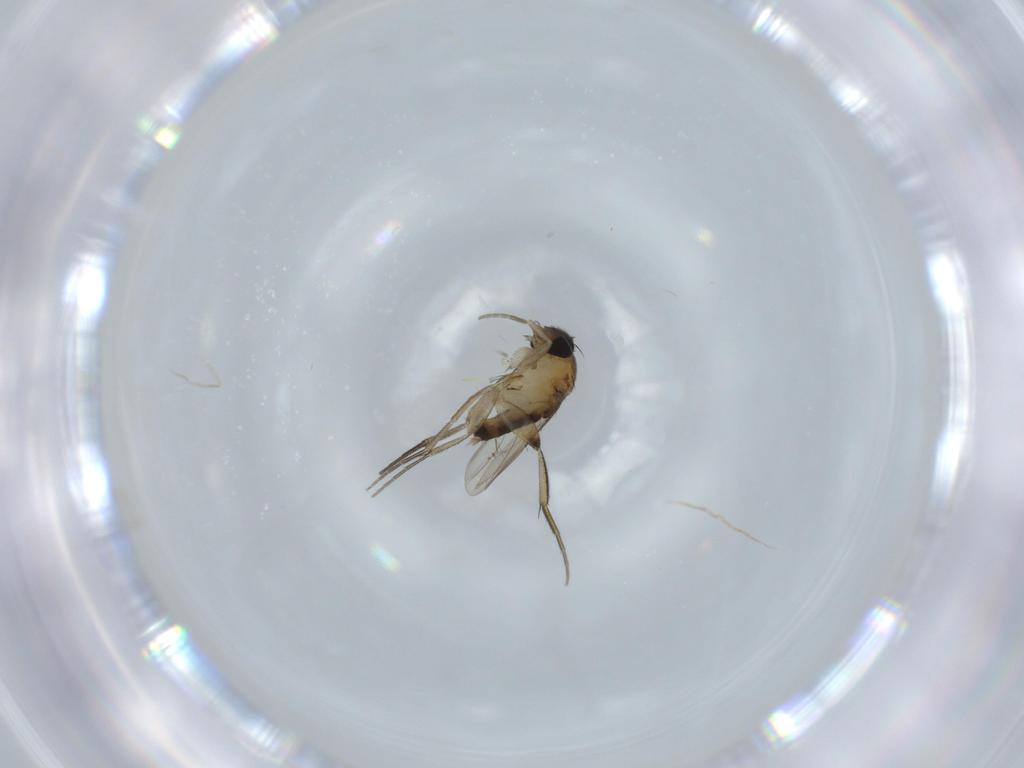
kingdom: Animalia
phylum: Arthropoda
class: Insecta
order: Diptera
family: Phoridae
